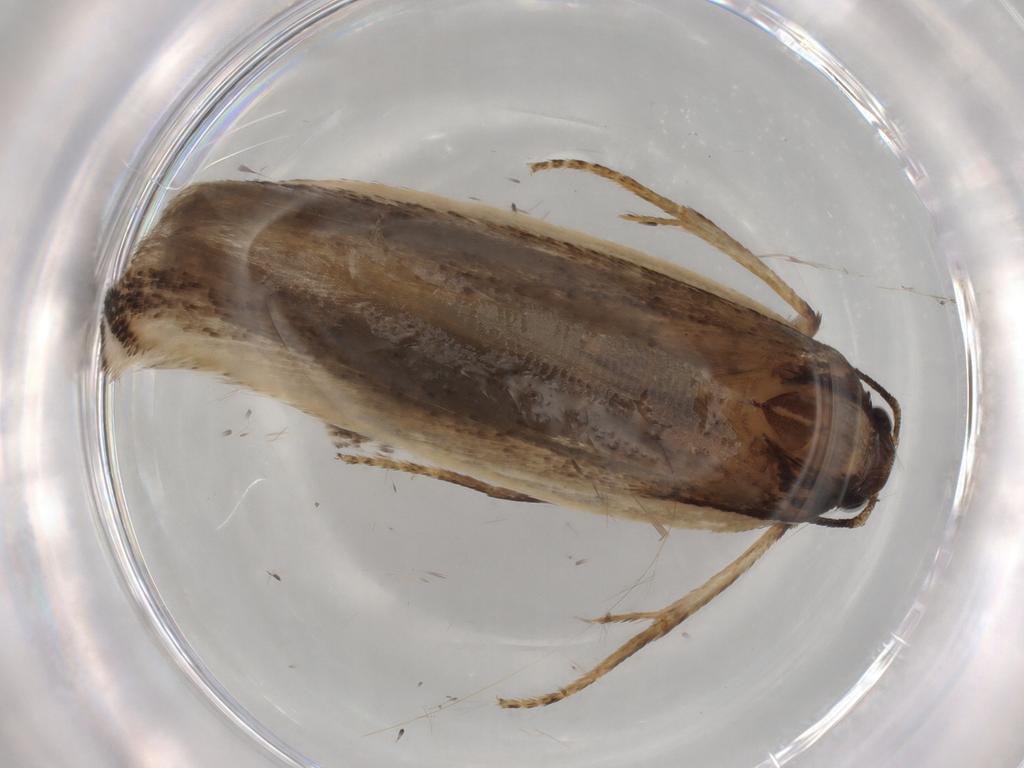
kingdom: Animalia
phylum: Arthropoda
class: Insecta
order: Lepidoptera
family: Gelechiidae
